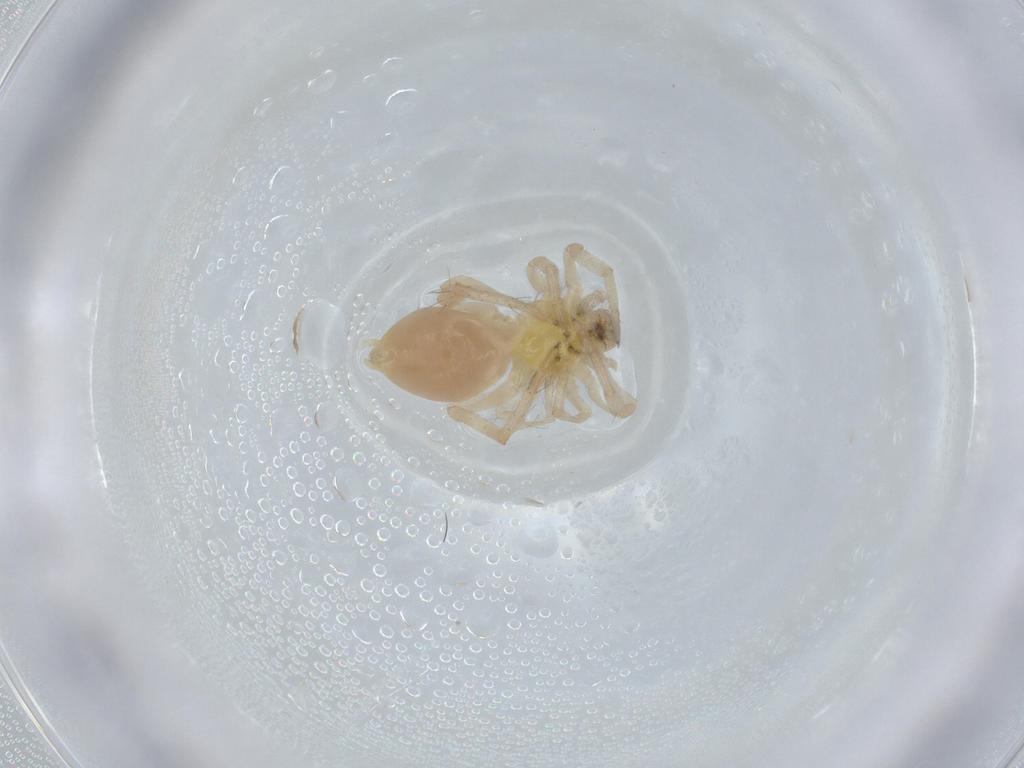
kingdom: Animalia
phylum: Arthropoda
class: Arachnida
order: Araneae
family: Anyphaenidae
